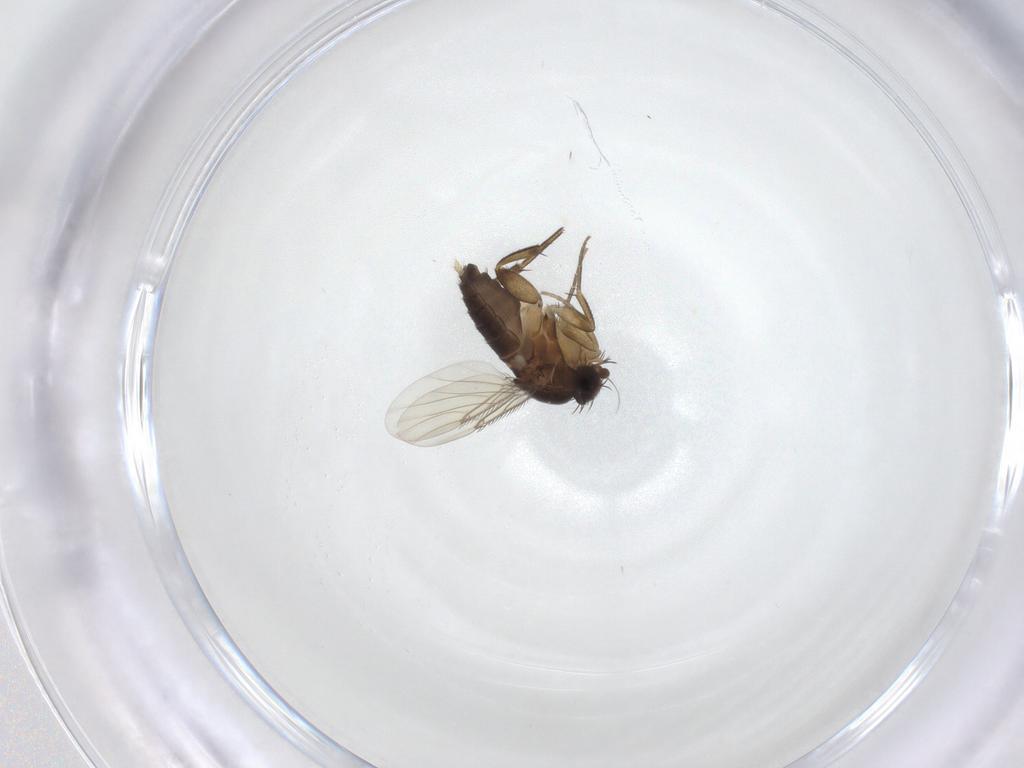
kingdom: Animalia
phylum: Arthropoda
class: Insecta
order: Diptera
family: Phoridae
